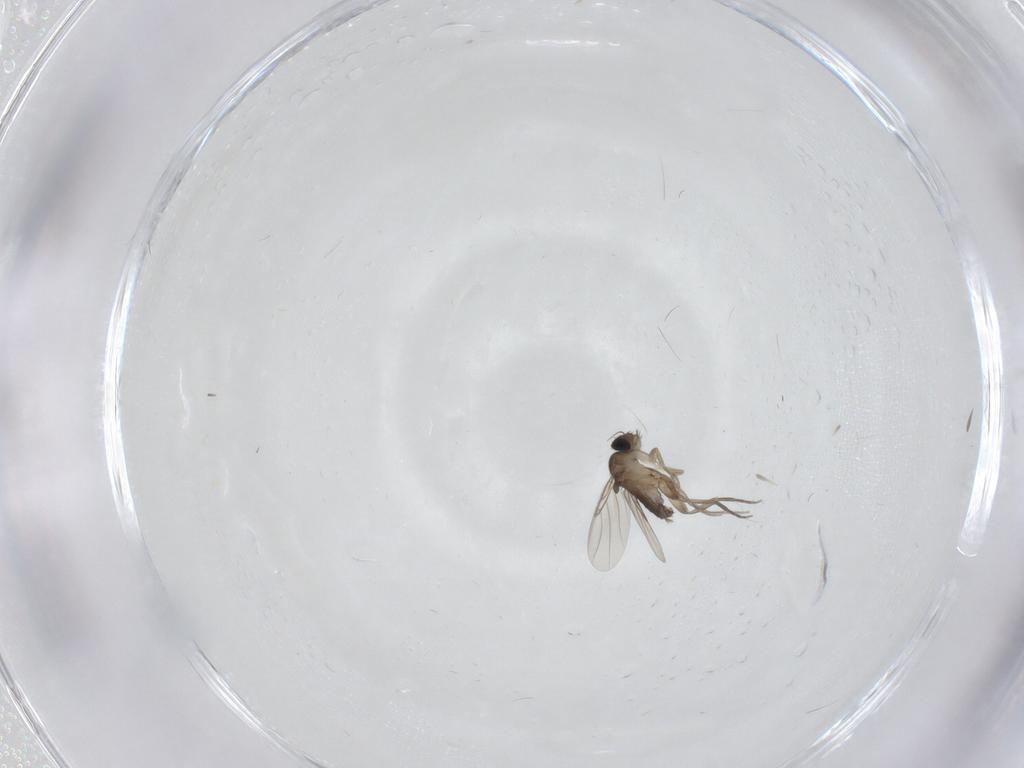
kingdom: Animalia
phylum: Arthropoda
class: Insecta
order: Diptera
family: Phoridae
